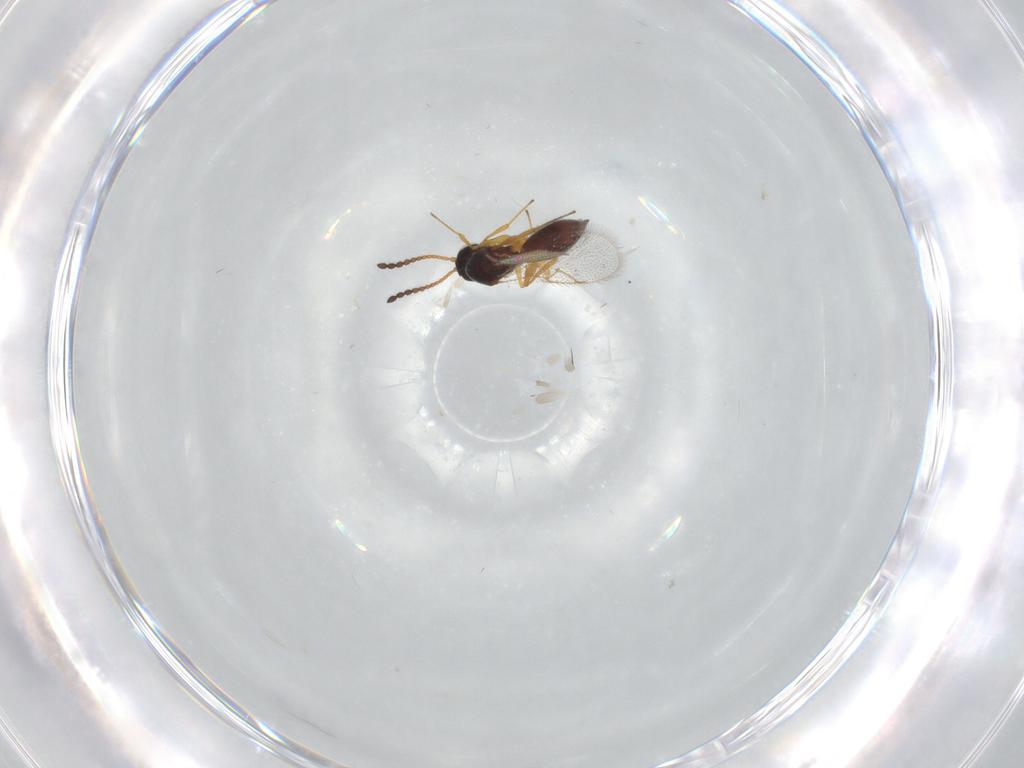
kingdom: Animalia
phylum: Arthropoda
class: Insecta
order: Hymenoptera
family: Figitidae
